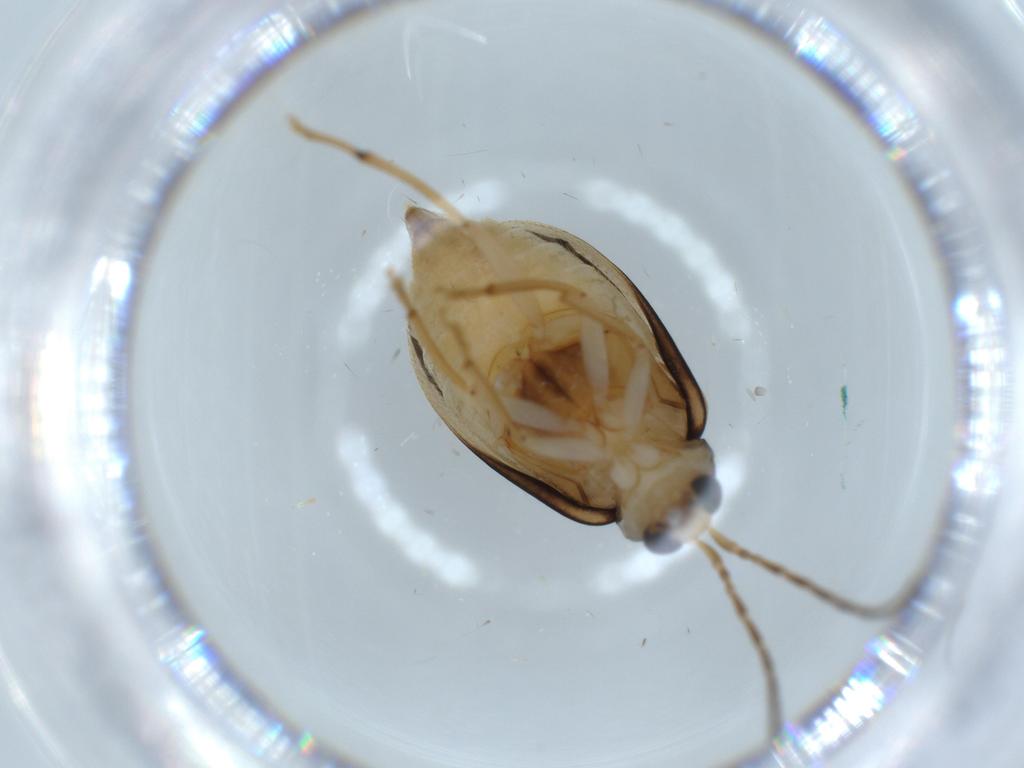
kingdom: Animalia
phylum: Arthropoda
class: Insecta
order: Coleoptera
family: Chrysomelidae
